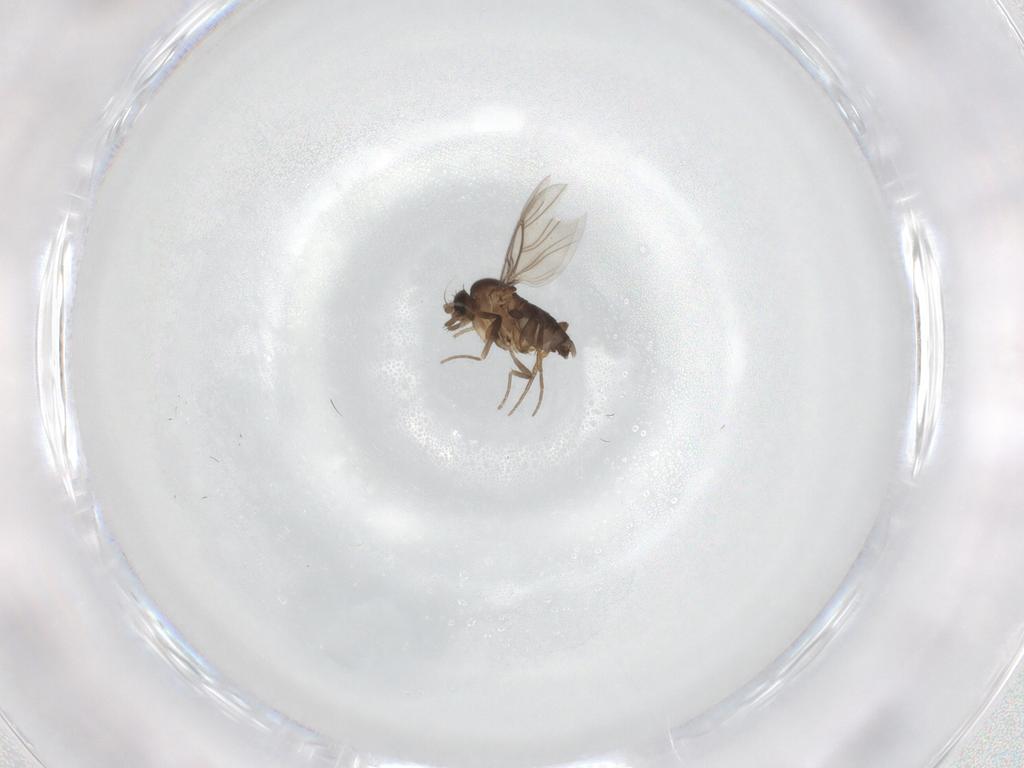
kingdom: Animalia
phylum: Arthropoda
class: Insecta
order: Diptera
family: Phoridae
